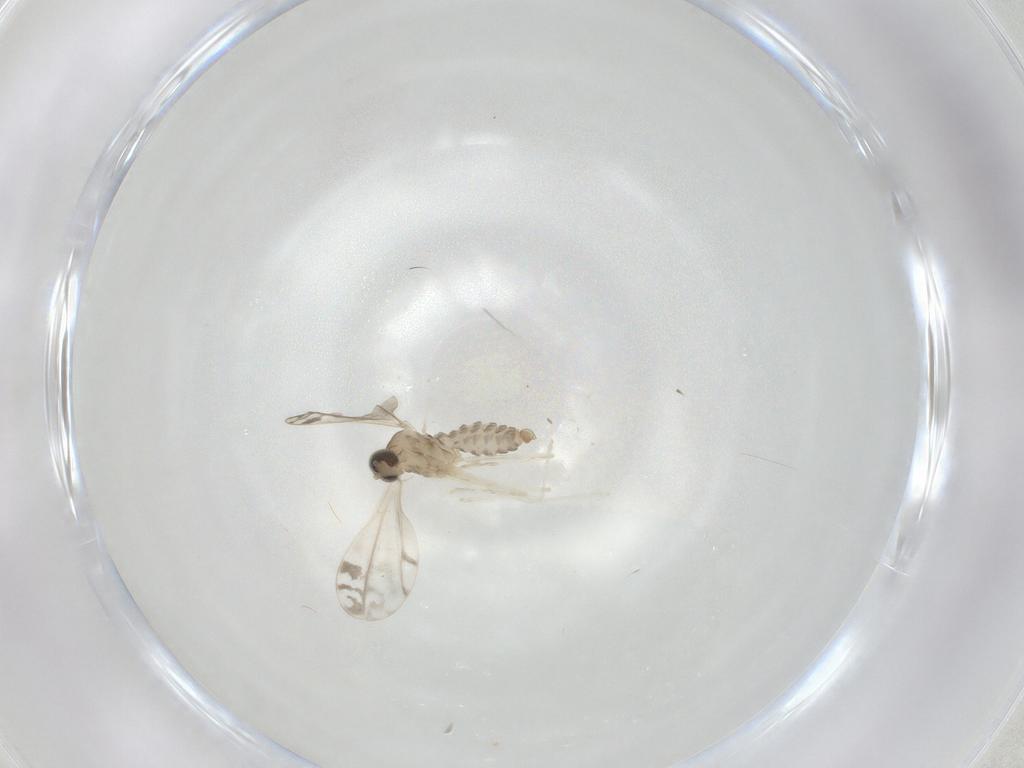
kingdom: Animalia
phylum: Arthropoda
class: Insecta
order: Diptera
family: Cecidomyiidae
